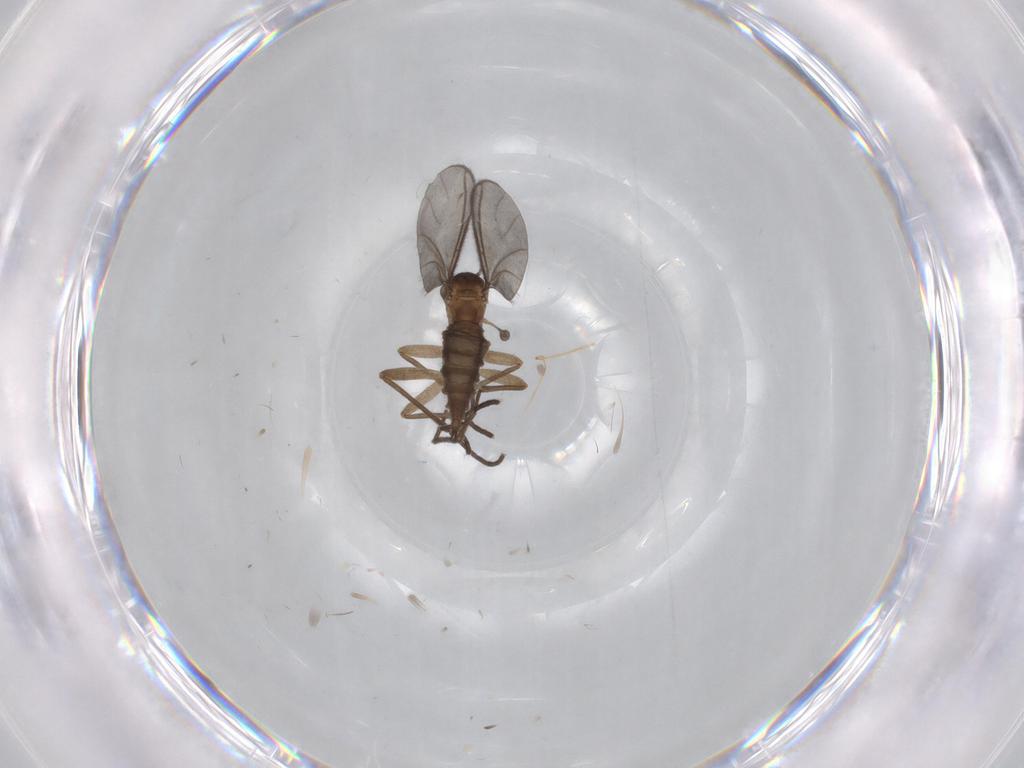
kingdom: Animalia
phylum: Arthropoda
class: Insecta
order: Diptera
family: Sciaridae
